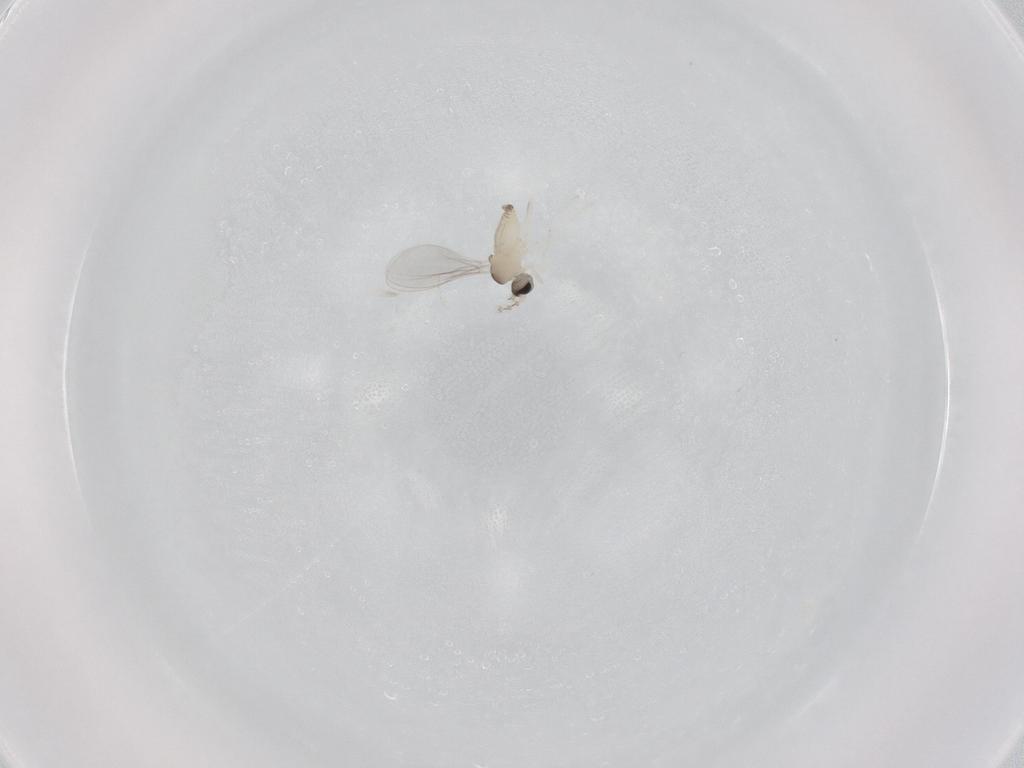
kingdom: Animalia
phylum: Arthropoda
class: Insecta
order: Diptera
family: Cecidomyiidae
